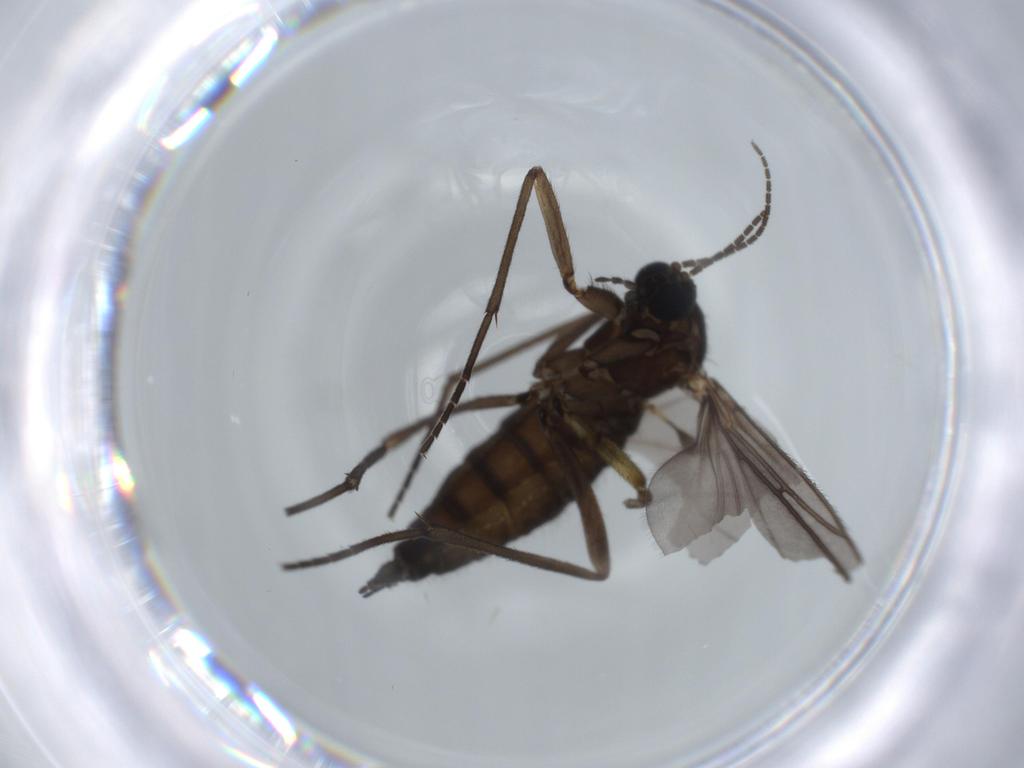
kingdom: Animalia
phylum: Arthropoda
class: Insecta
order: Diptera
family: Sciaridae
